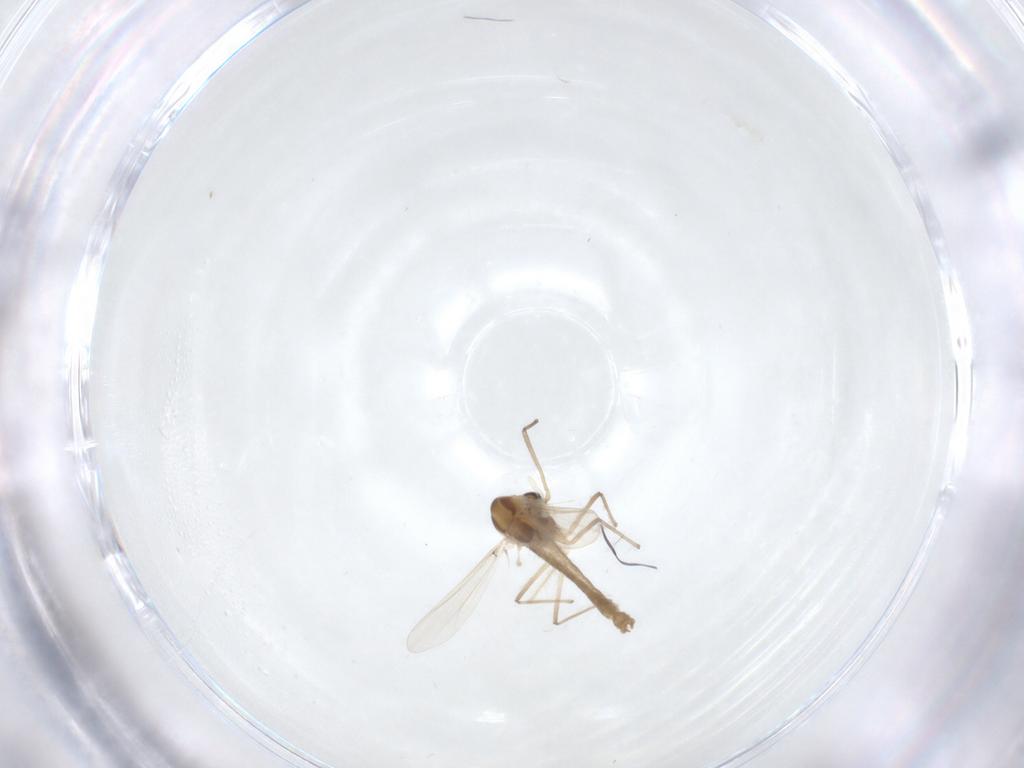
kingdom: Animalia
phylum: Arthropoda
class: Insecta
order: Diptera
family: Chironomidae
